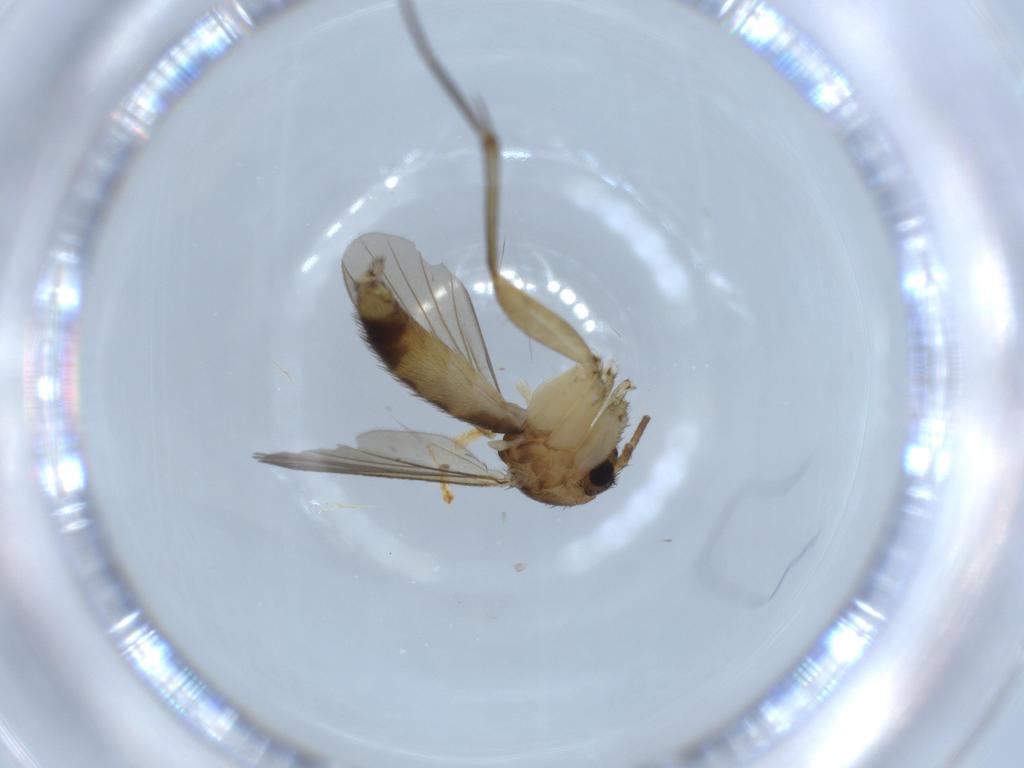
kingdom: Animalia
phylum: Arthropoda
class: Insecta
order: Diptera
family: Mycetophilidae
